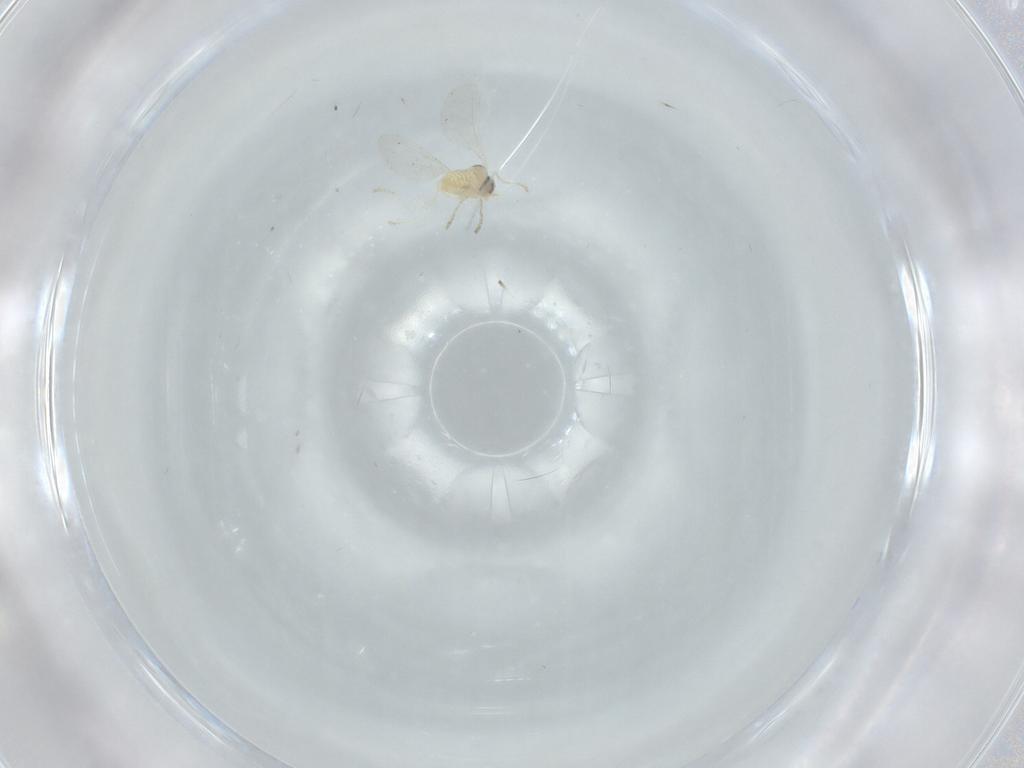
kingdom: Animalia
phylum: Arthropoda
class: Insecta
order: Diptera
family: Cecidomyiidae
